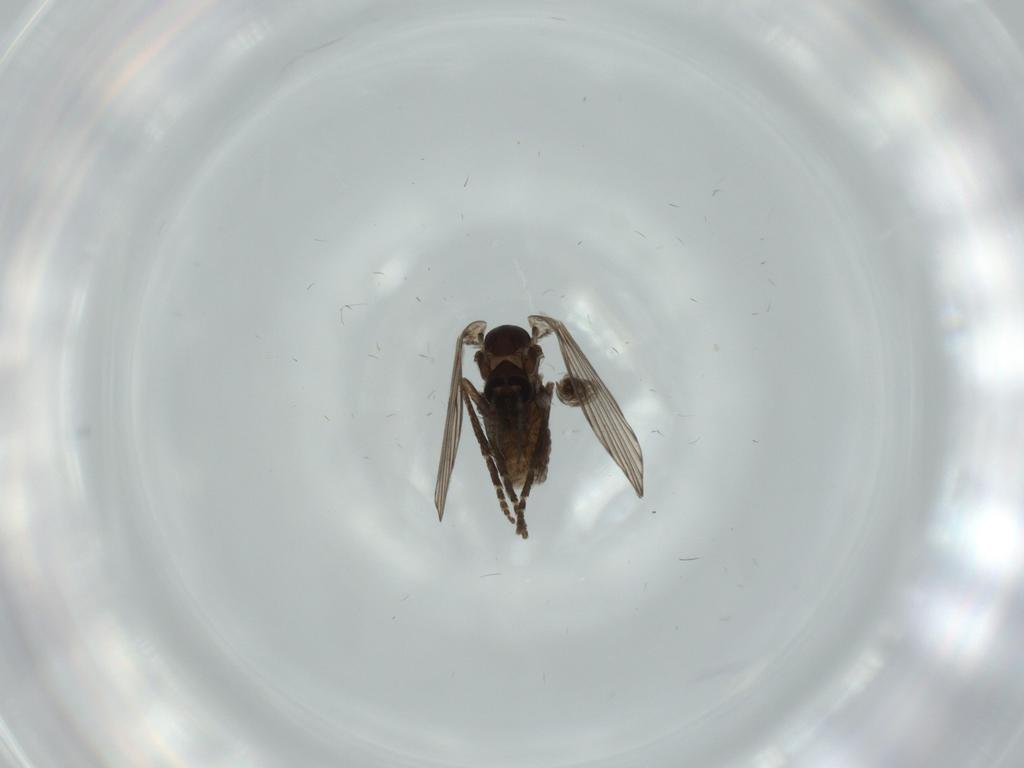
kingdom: Animalia
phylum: Arthropoda
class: Insecta
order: Diptera
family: Psychodidae
